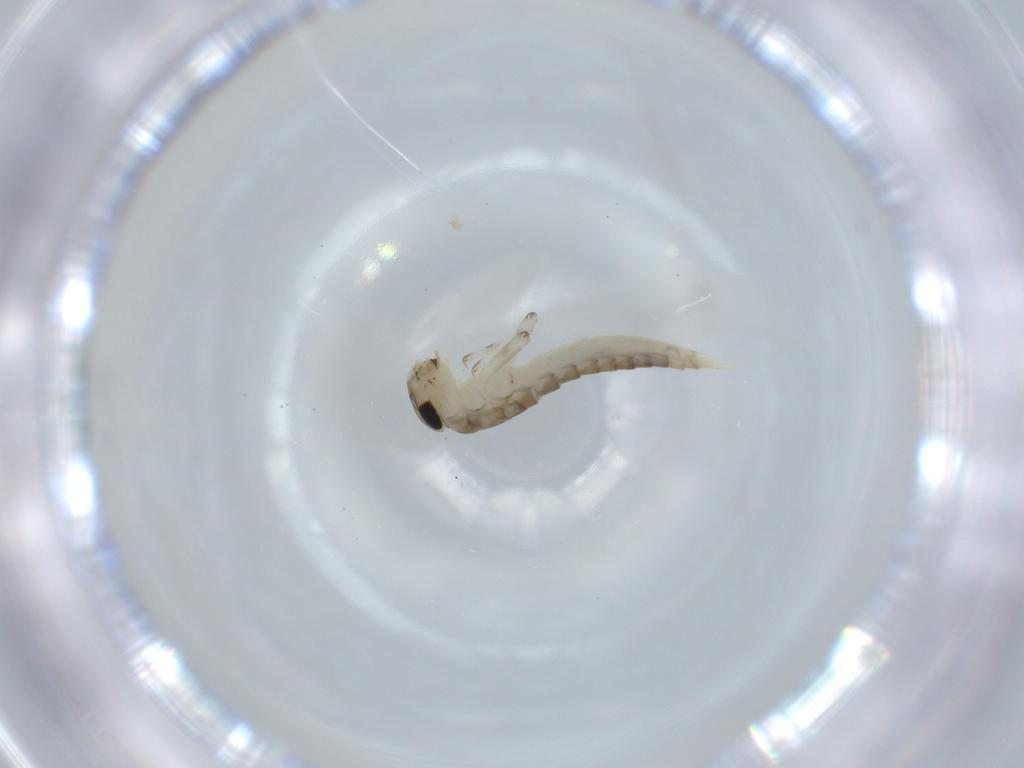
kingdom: Animalia
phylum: Arthropoda
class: Insecta
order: Ephemeroptera
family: Baetidae
